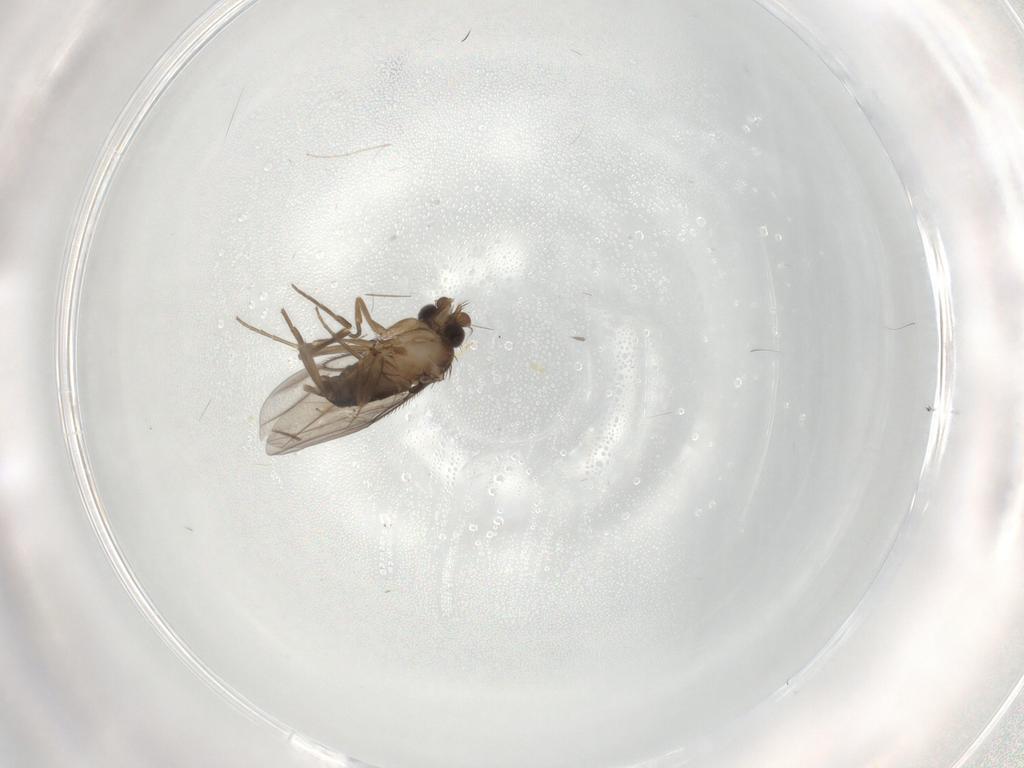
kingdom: Animalia
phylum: Arthropoda
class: Insecta
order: Diptera
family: Cecidomyiidae
